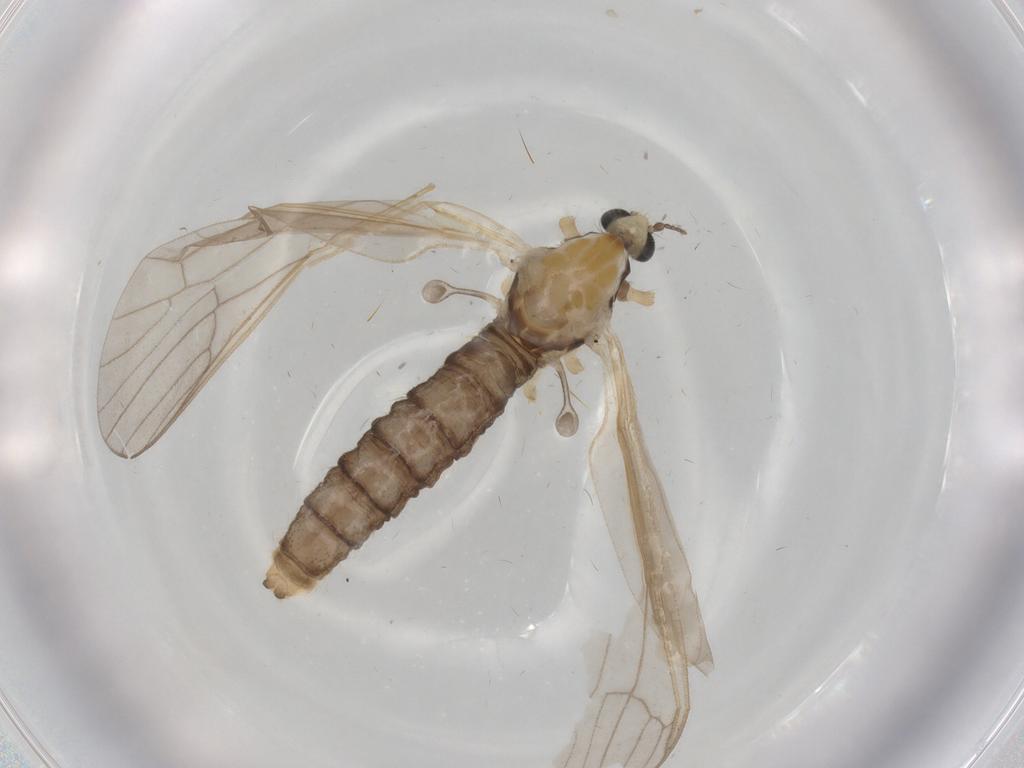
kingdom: Animalia
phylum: Arthropoda
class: Insecta
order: Diptera
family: Limoniidae
